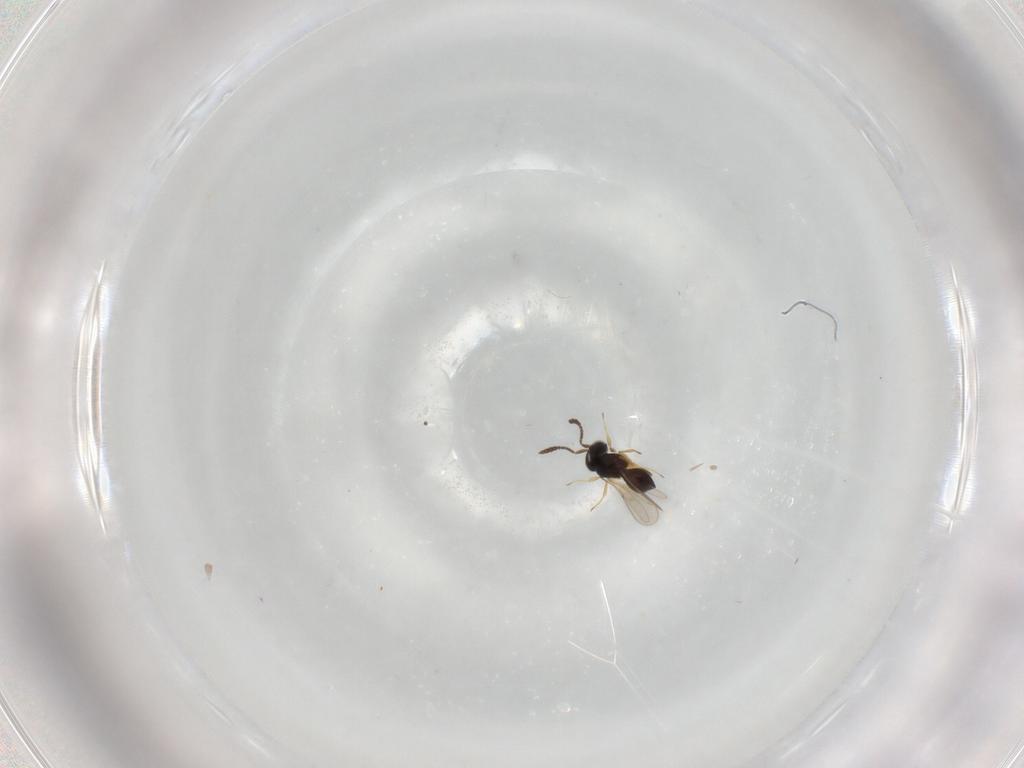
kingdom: Animalia
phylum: Arthropoda
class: Insecta
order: Hymenoptera
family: Scelionidae
